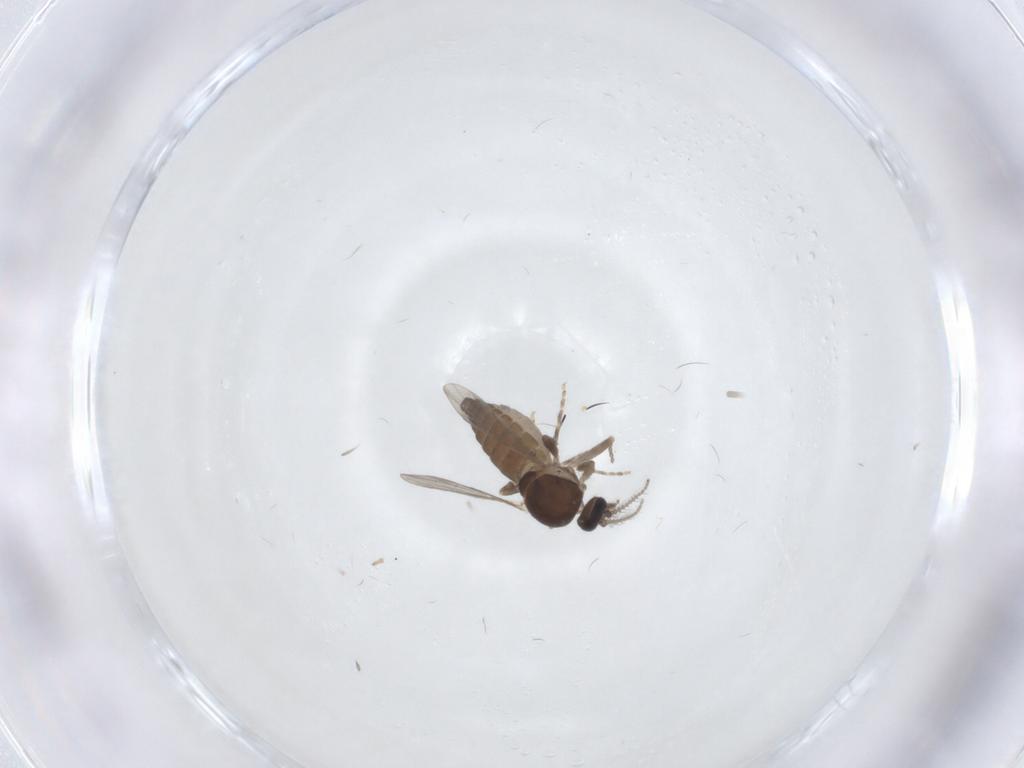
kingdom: Animalia
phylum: Arthropoda
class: Insecta
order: Diptera
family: Ceratopogonidae
